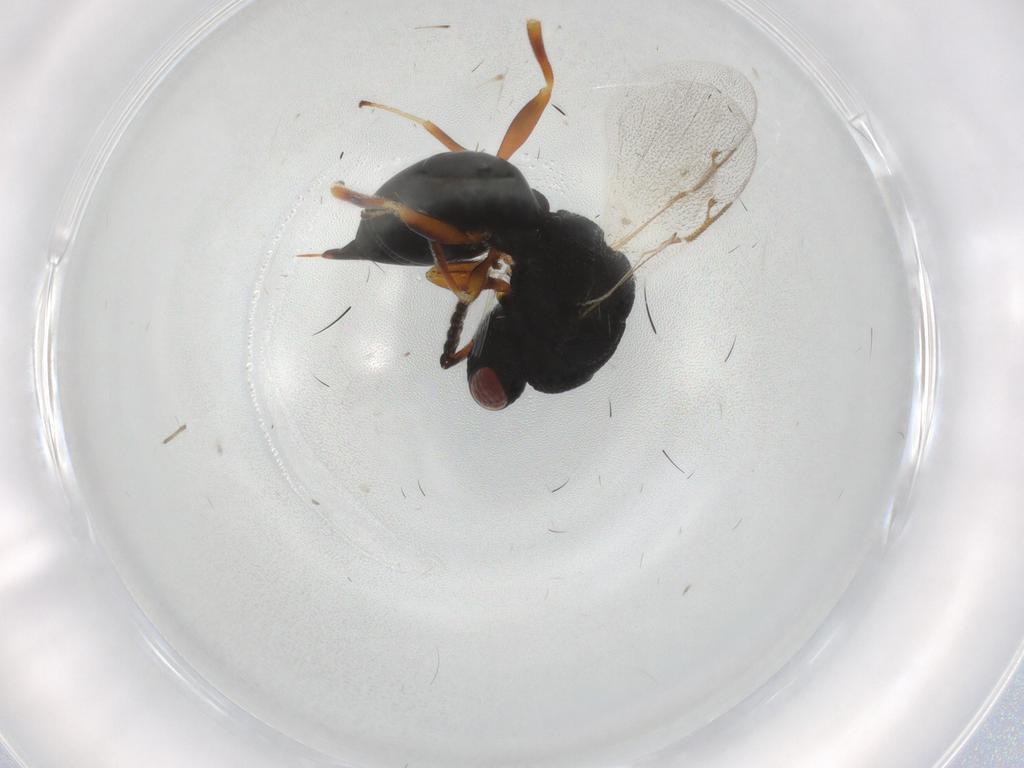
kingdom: Animalia
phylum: Arthropoda
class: Insecta
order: Hymenoptera
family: Eurytomidae
